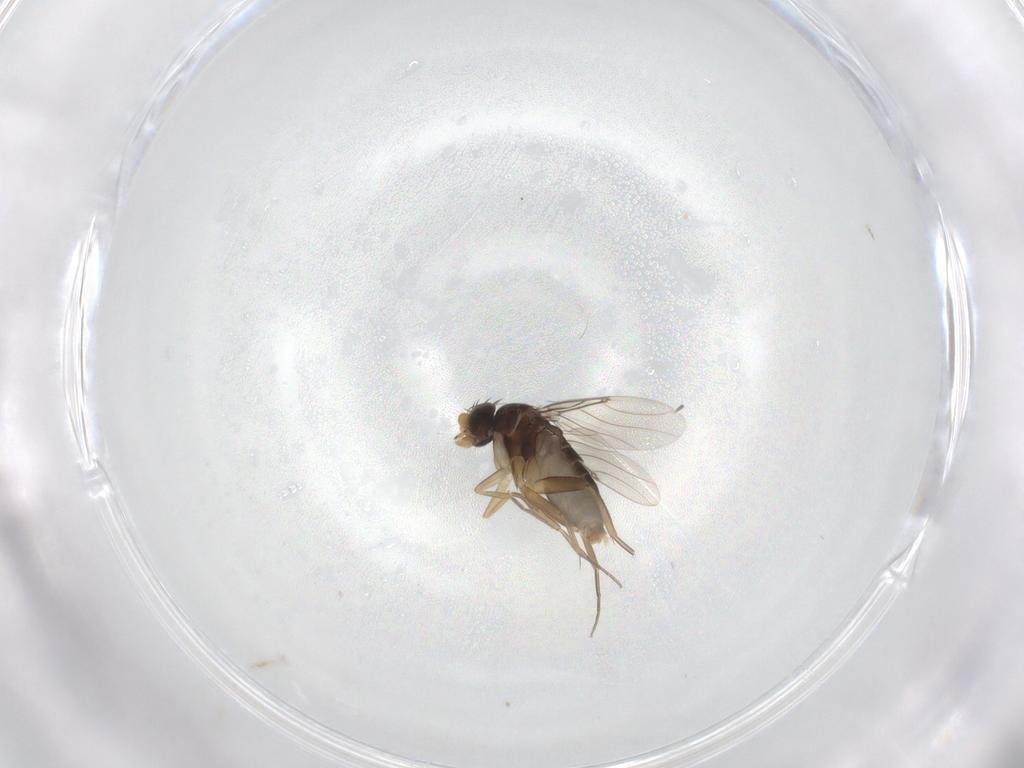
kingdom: Animalia
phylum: Arthropoda
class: Insecta
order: Diptera
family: Phoridae
